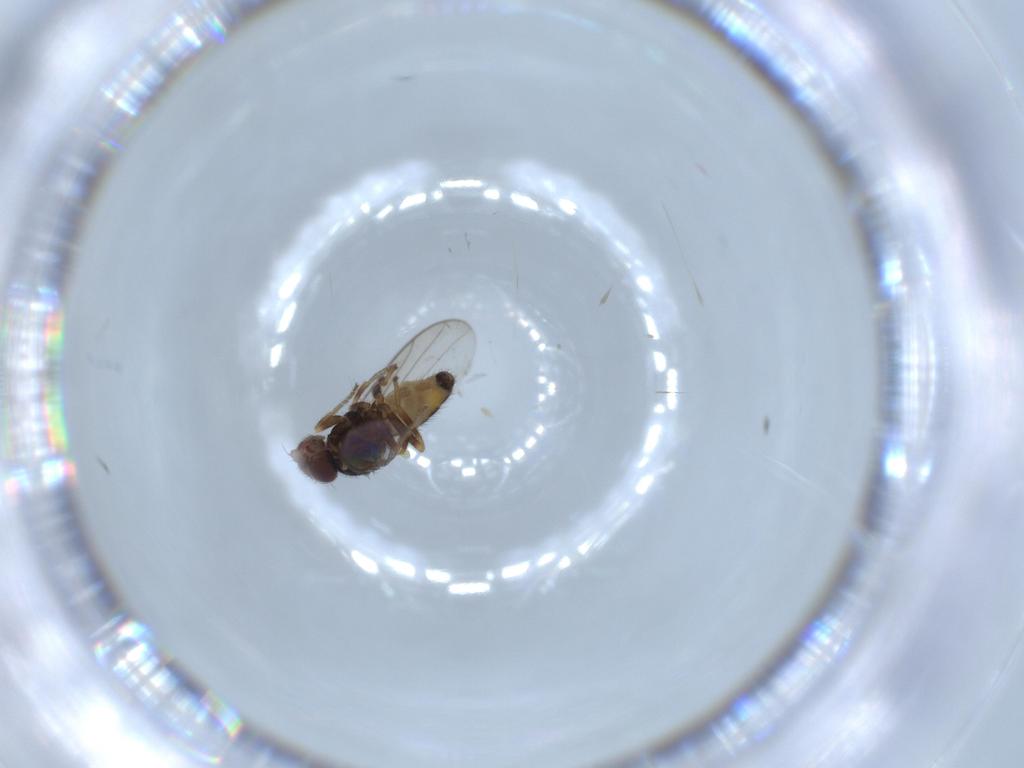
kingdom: Animalia
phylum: Arthropoda
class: Insecta
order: Diptera
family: Chloropidae
